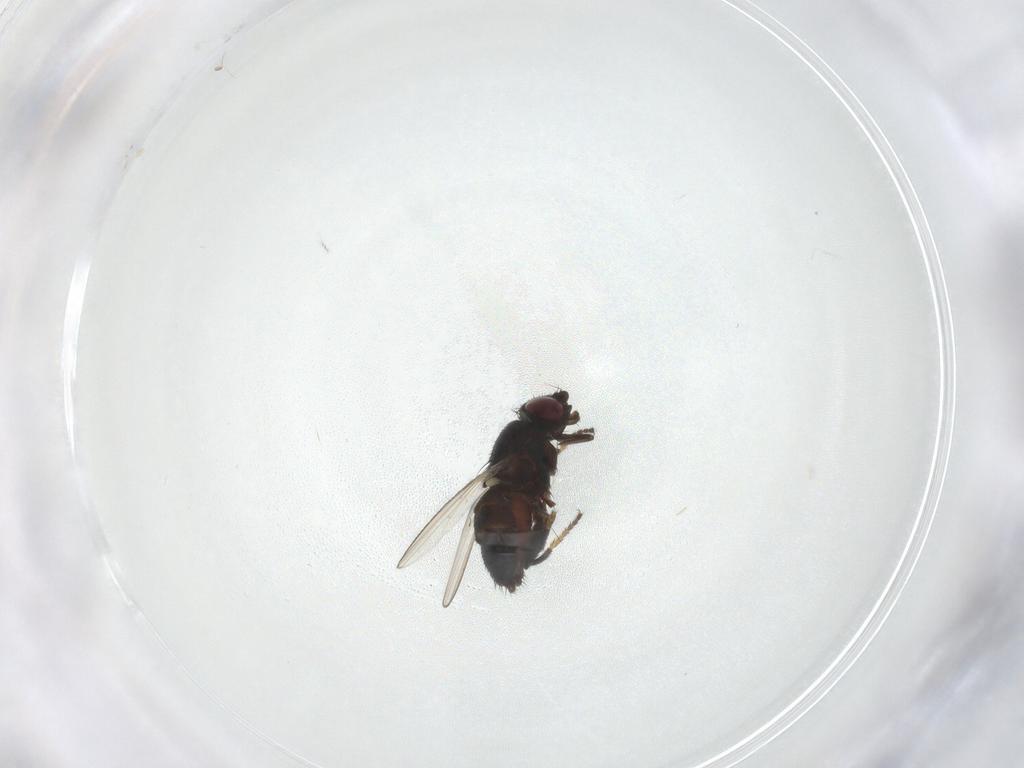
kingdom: Animalia
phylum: Arthropoda
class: Insecta
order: Diptera
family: Milichiidae
